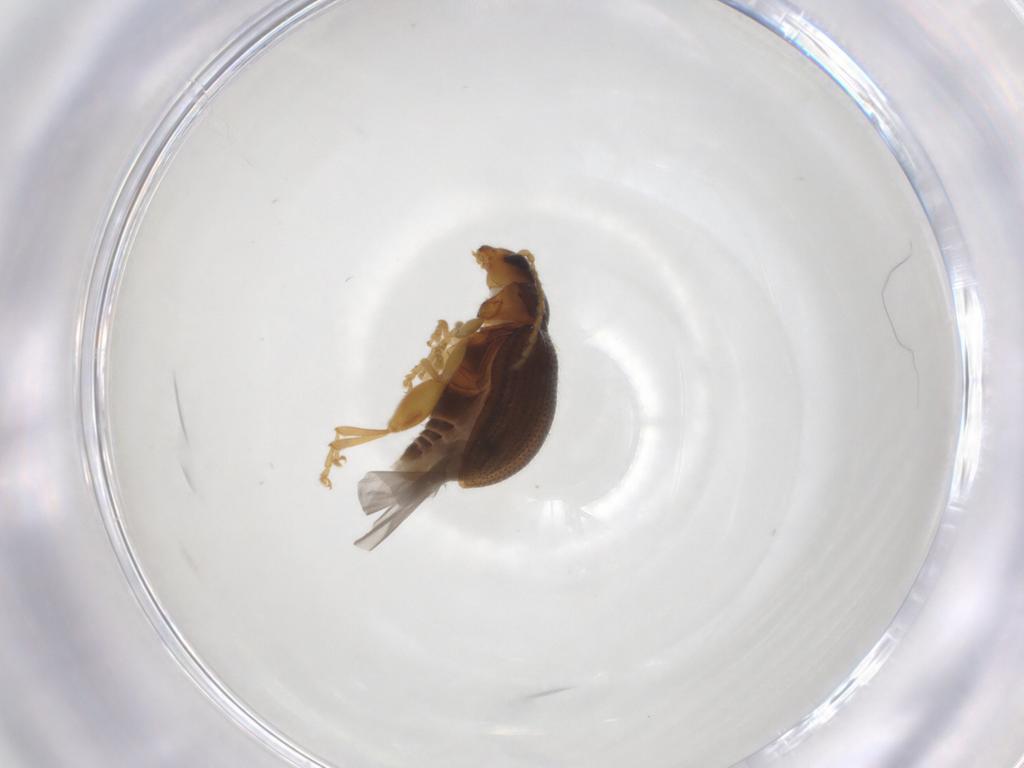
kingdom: Animalia
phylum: Arthropoda
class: Insecta
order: Coleoptera
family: Chrysomelidae
